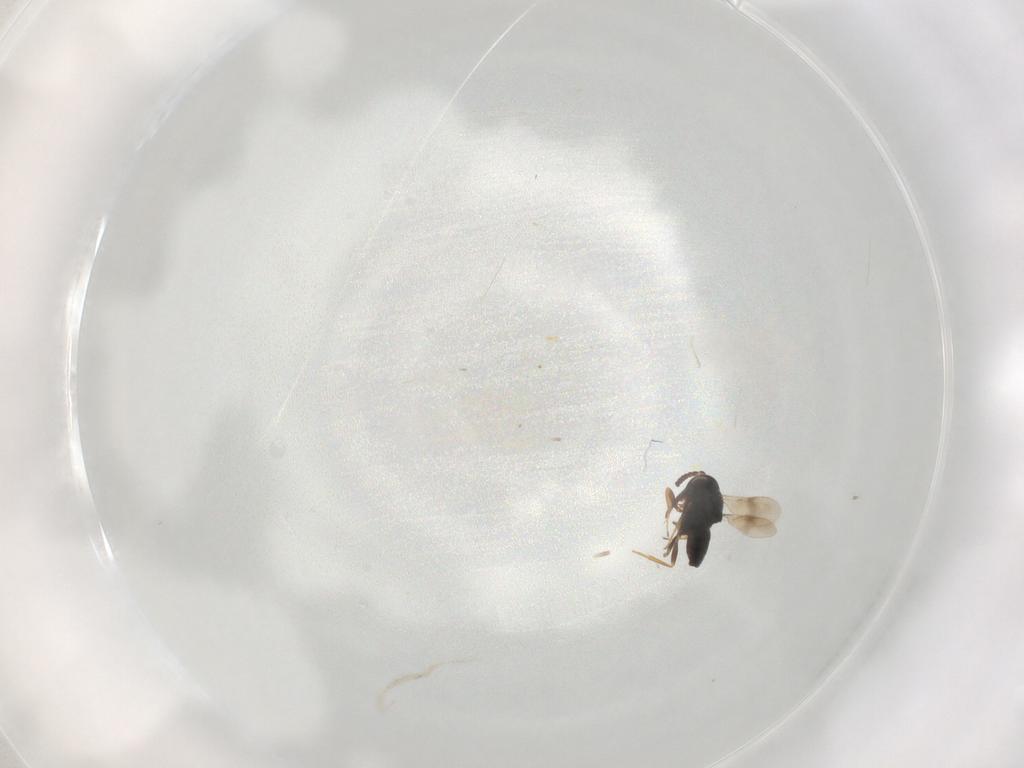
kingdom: Animalia
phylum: Arthropoda
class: Insecta
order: Hymenoptera
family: Scelionidae
